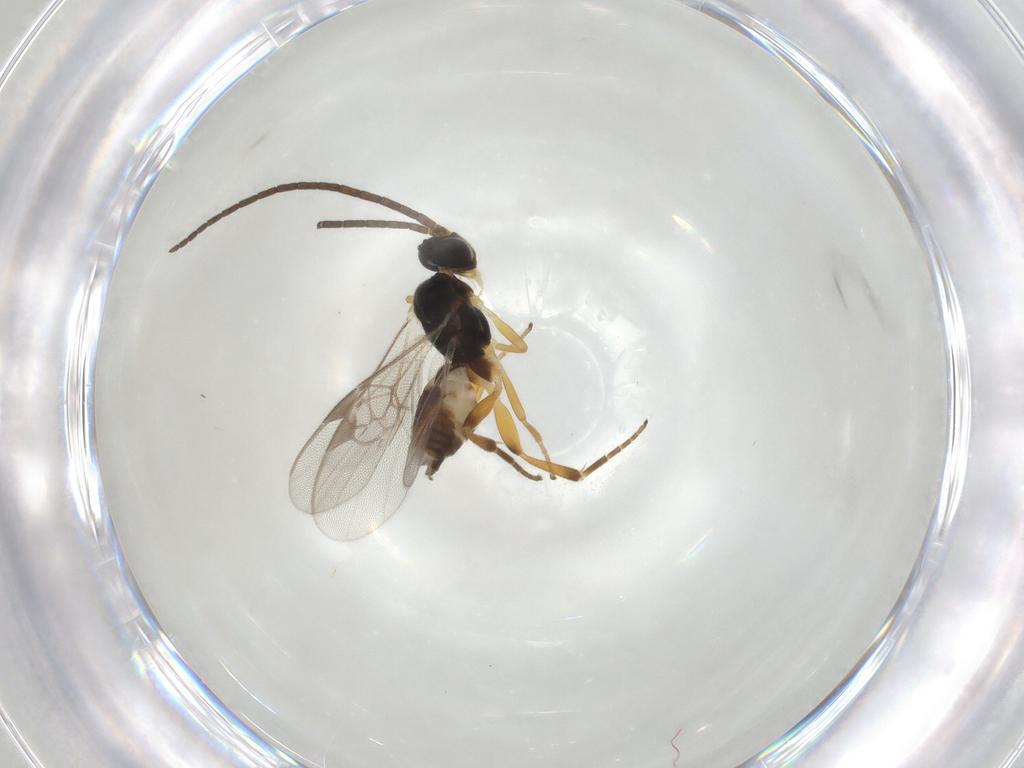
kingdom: Animalia
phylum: Arthropoda
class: Insecta
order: Hymenoptera
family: Braconidae
